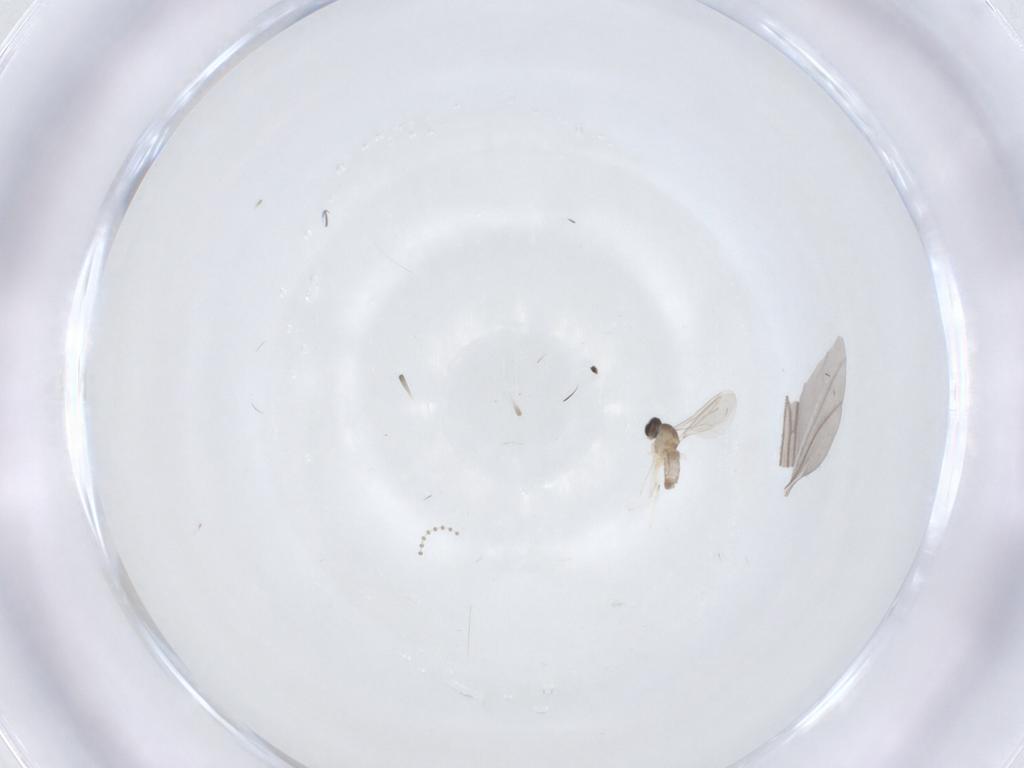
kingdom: Animalia
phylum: Arthropoda
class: Insecta
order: Diptera
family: Psychodidae
